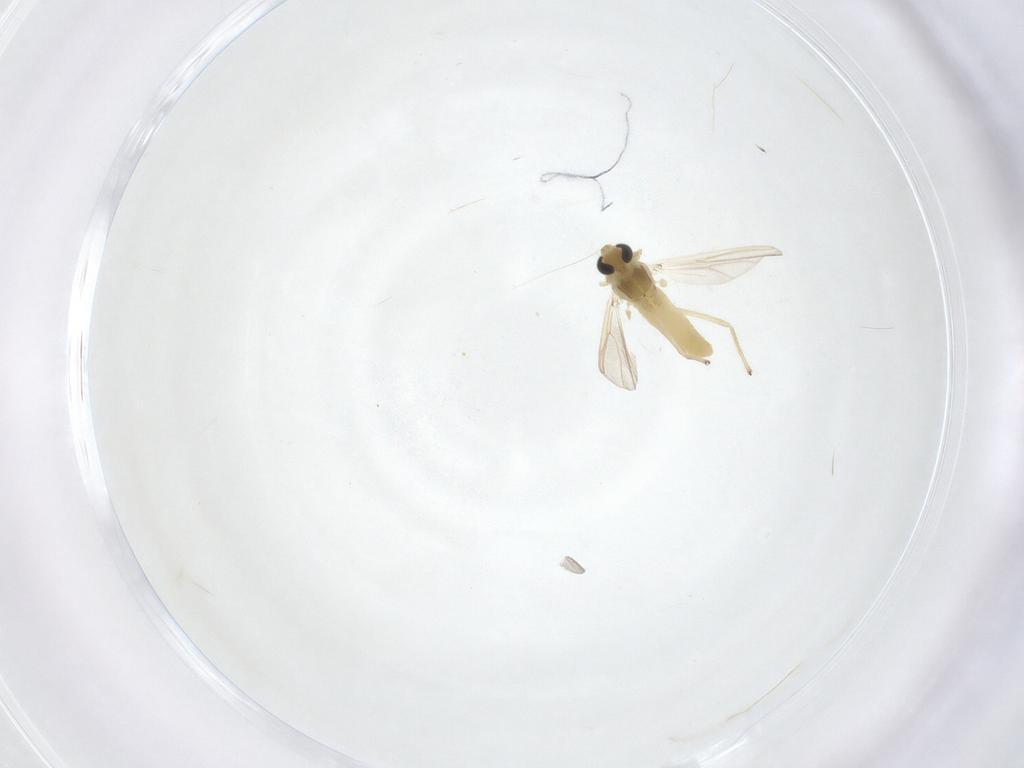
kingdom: Animalia
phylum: Arthropoda
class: Insecta
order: Diptera
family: Chironomidae
